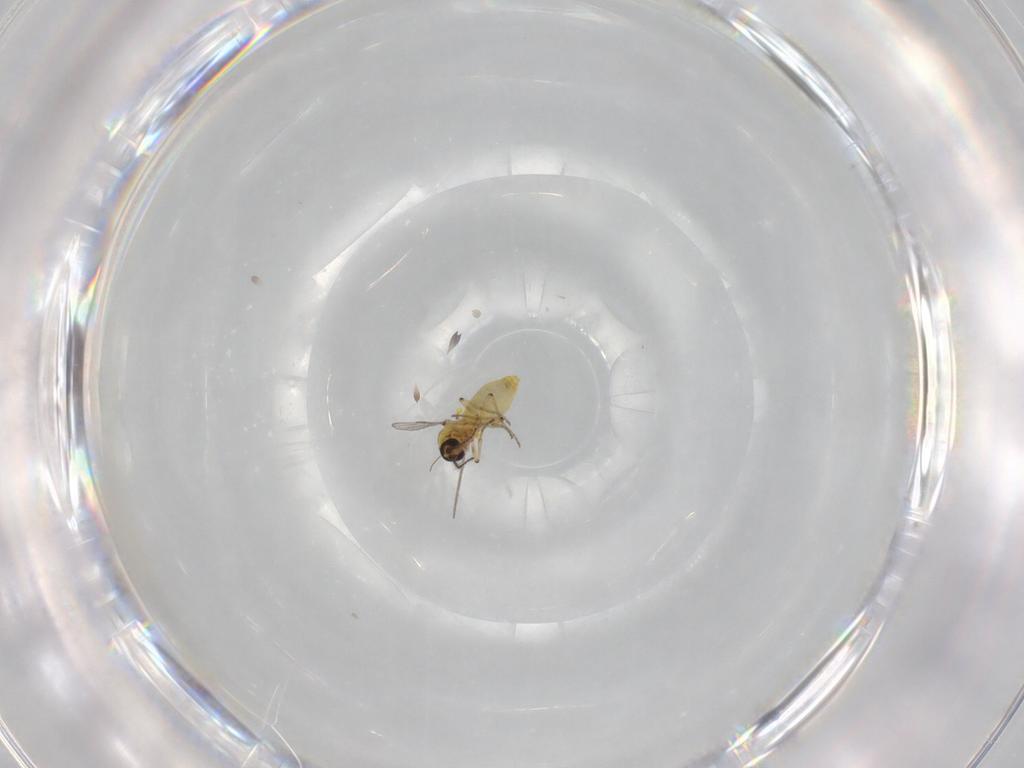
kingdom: Animalia
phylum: Arthropoda
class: Insecta
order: Diptera
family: Ceratopogonidae
